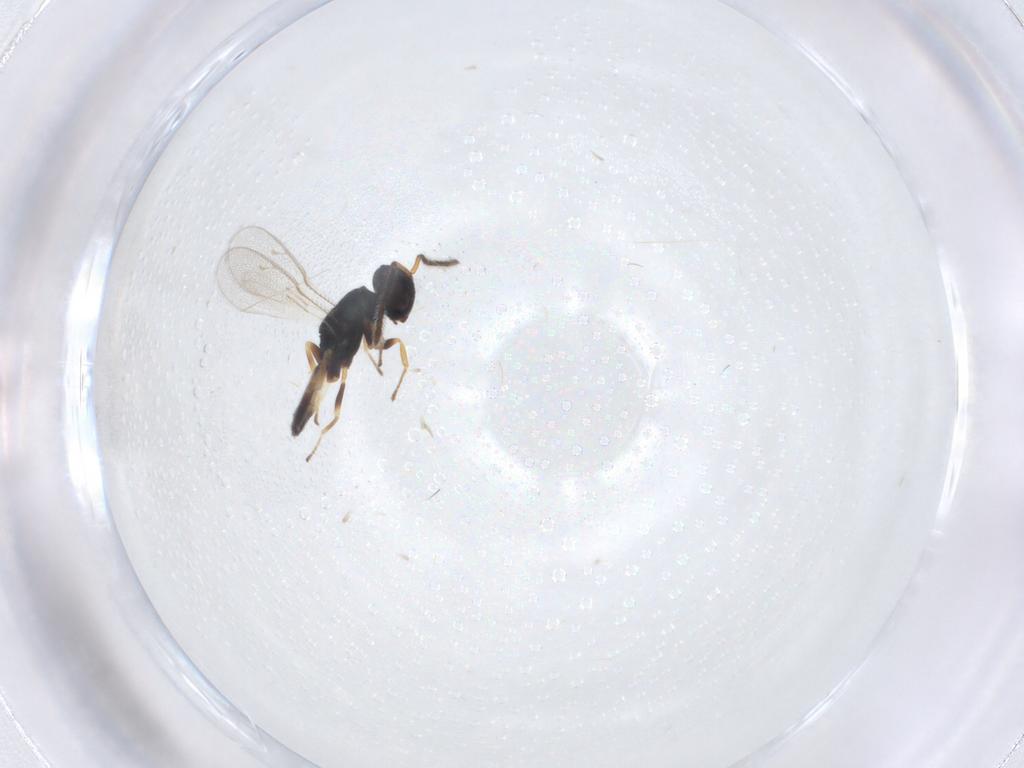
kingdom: Animalia
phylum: Arthropoda
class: Insecta
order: Hymenoptera
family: Pteromalidae
